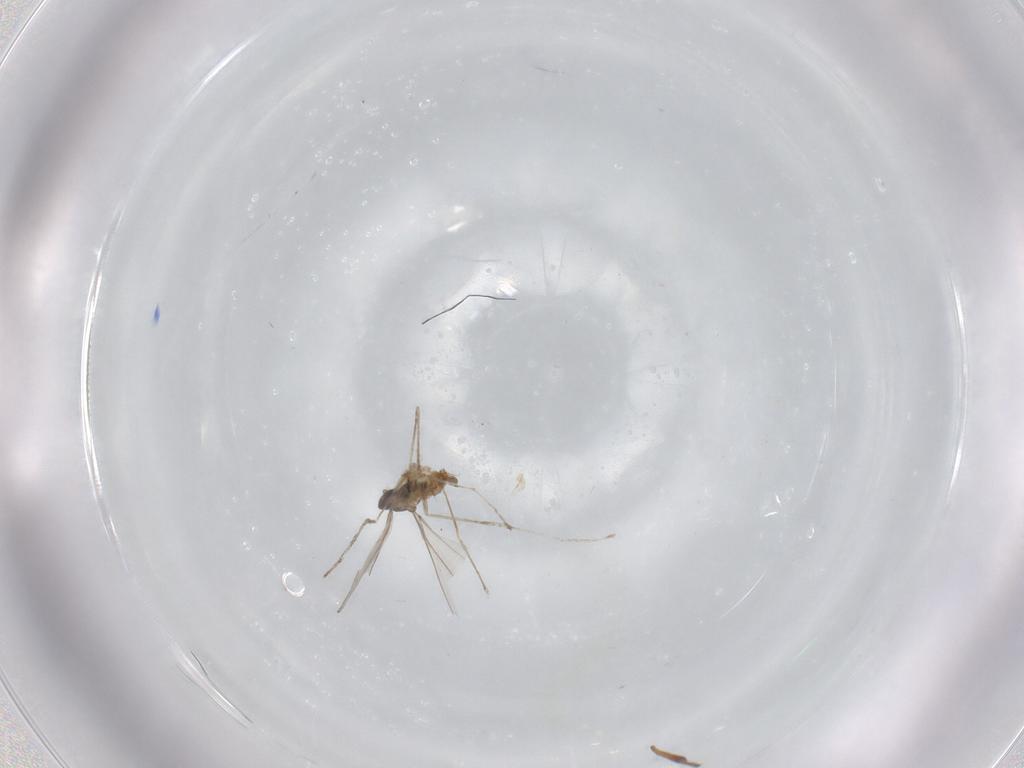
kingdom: Animalia
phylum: Arthropoda
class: Insecta
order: Diptera
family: Cecidomyiidae
